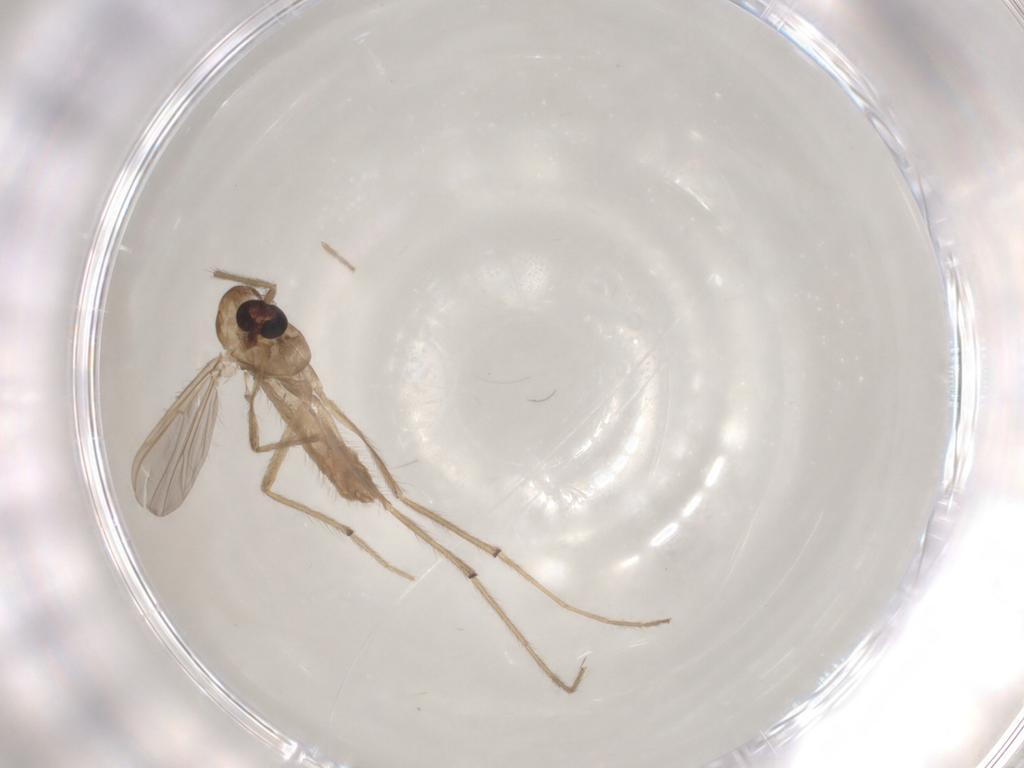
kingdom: Animalia
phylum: Arthropoda
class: Insecta
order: Diptera
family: Chironomidae
